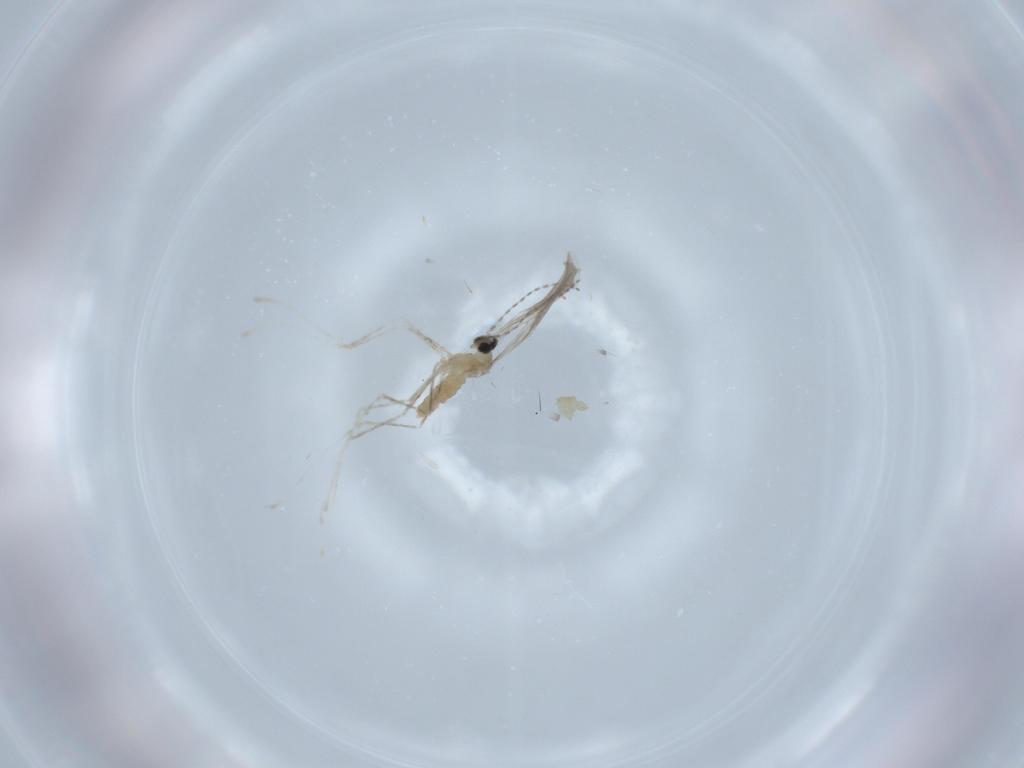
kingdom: Animalia
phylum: Arthropoda
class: Insecta
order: Diptera
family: Cecidomyiidae
